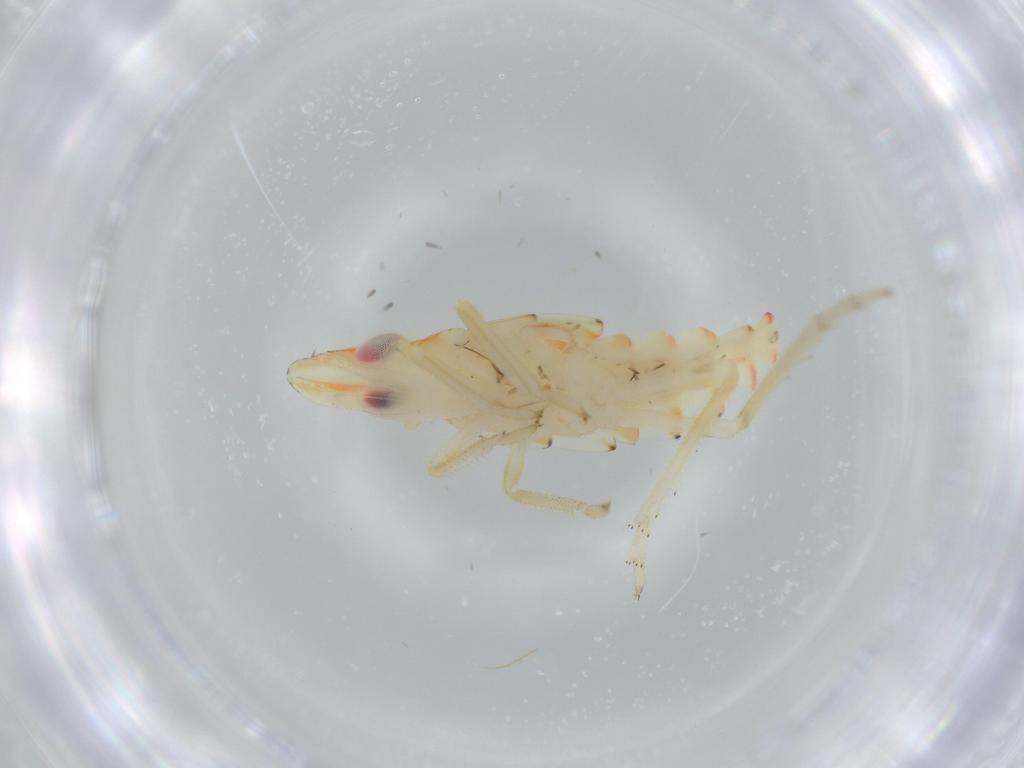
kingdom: Animalia
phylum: Arthropoda
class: Insecta
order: Hemiptera
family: Tropiduchidae
